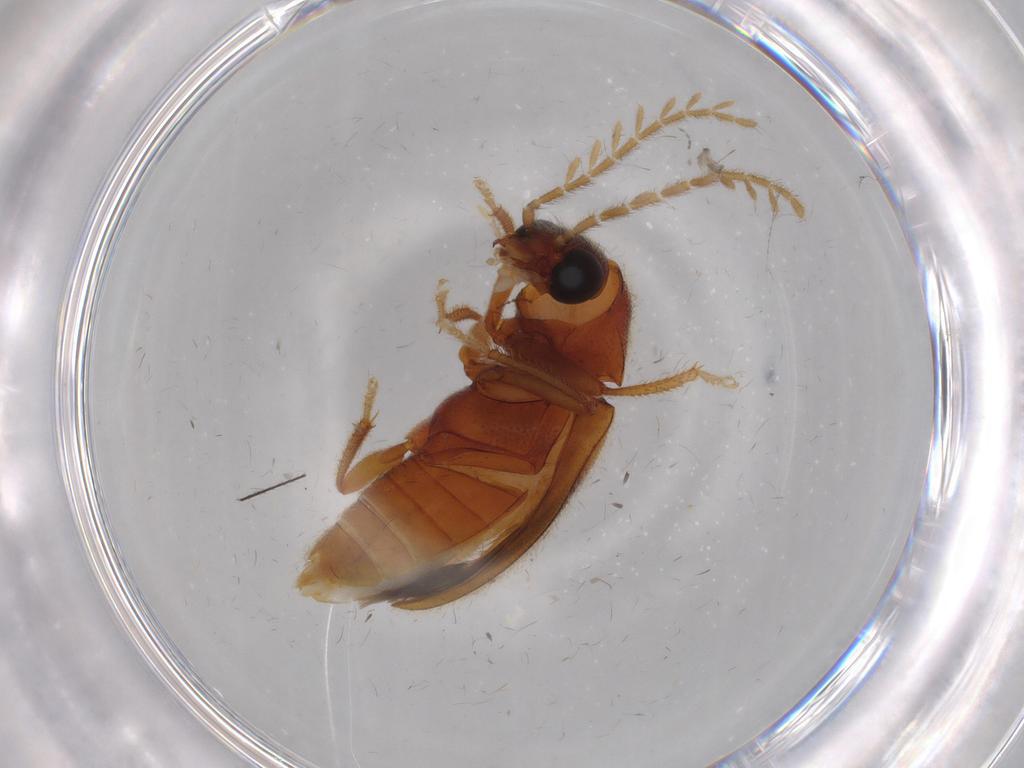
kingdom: Animalia
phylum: Arthropoda
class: Insecta
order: Coleoptera
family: Ptilodactylidae
